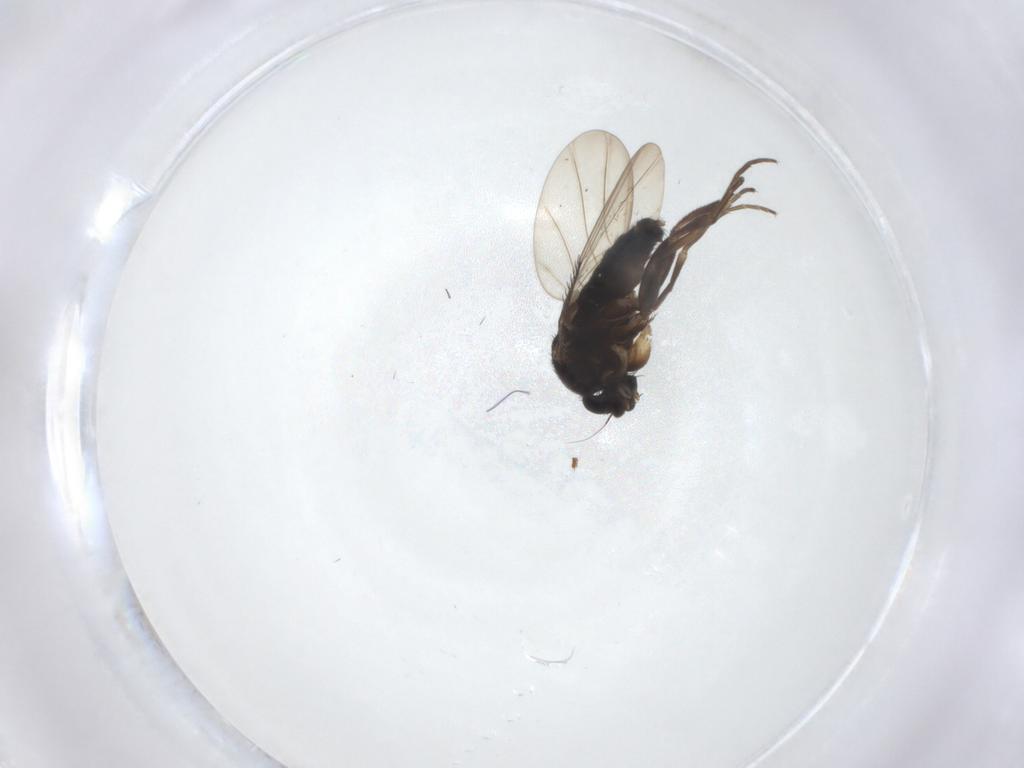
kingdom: Animalia
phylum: Arthropoda
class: Insecta
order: Diptera
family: Phoridae
